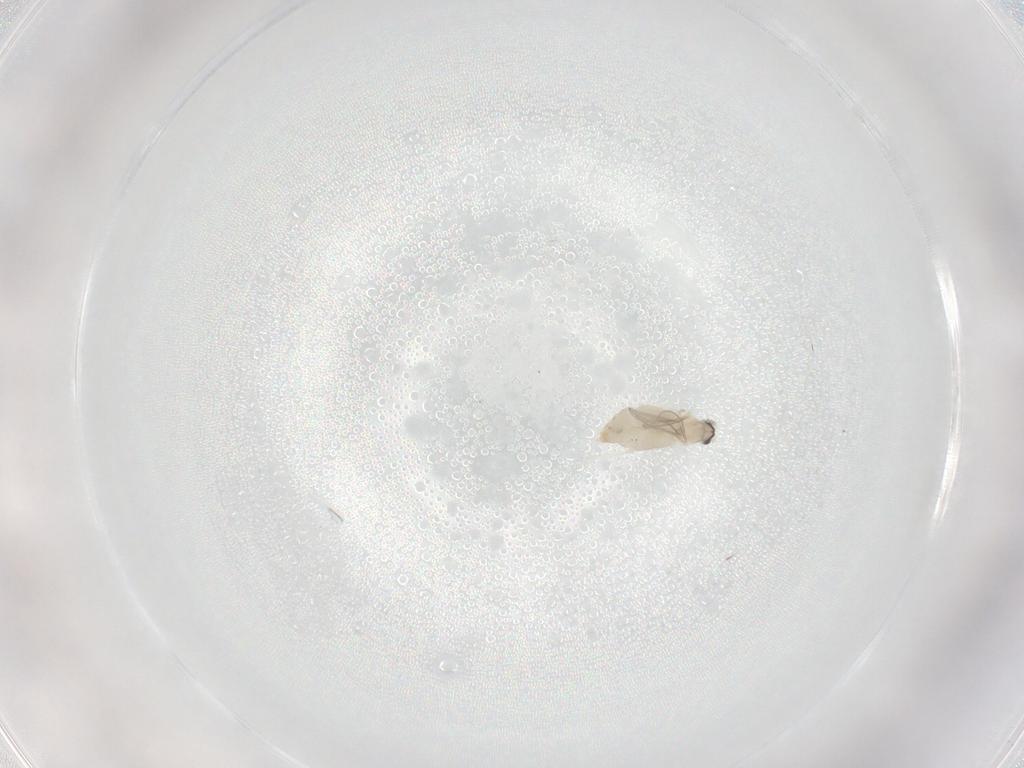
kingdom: Animalia
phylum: Arthropoda
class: Insecta
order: Diptera
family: Cecidomyiidae
